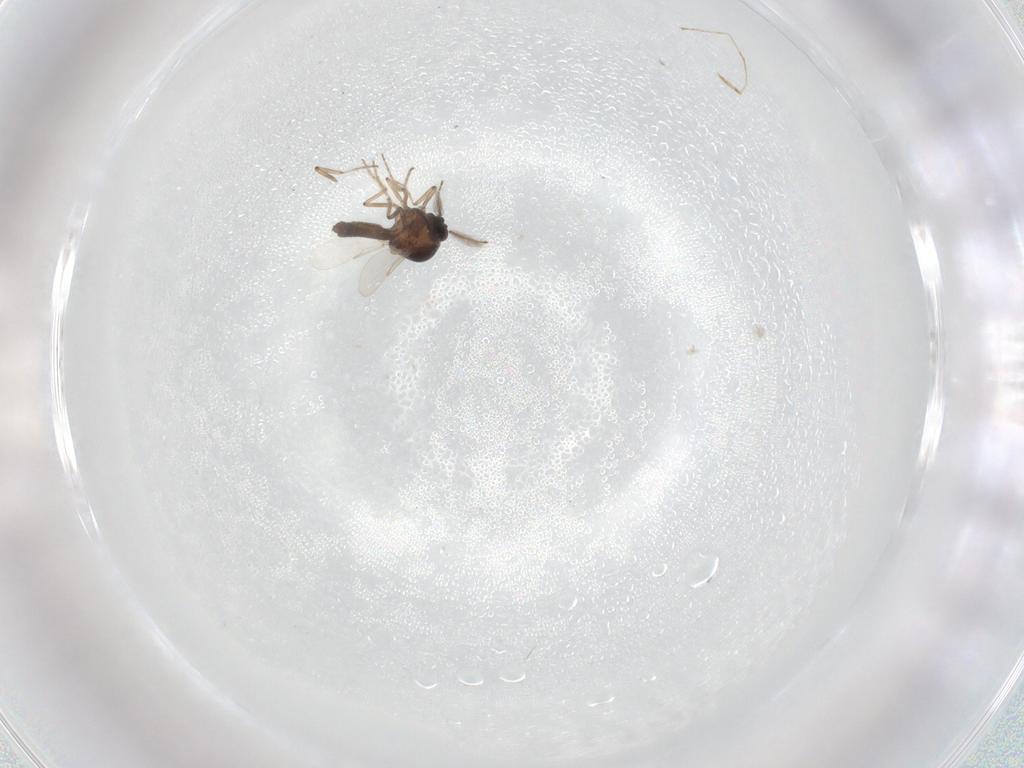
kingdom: Animalia
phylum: Arthropoda
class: Insecta
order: Diptera
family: Ceratopogonidae
